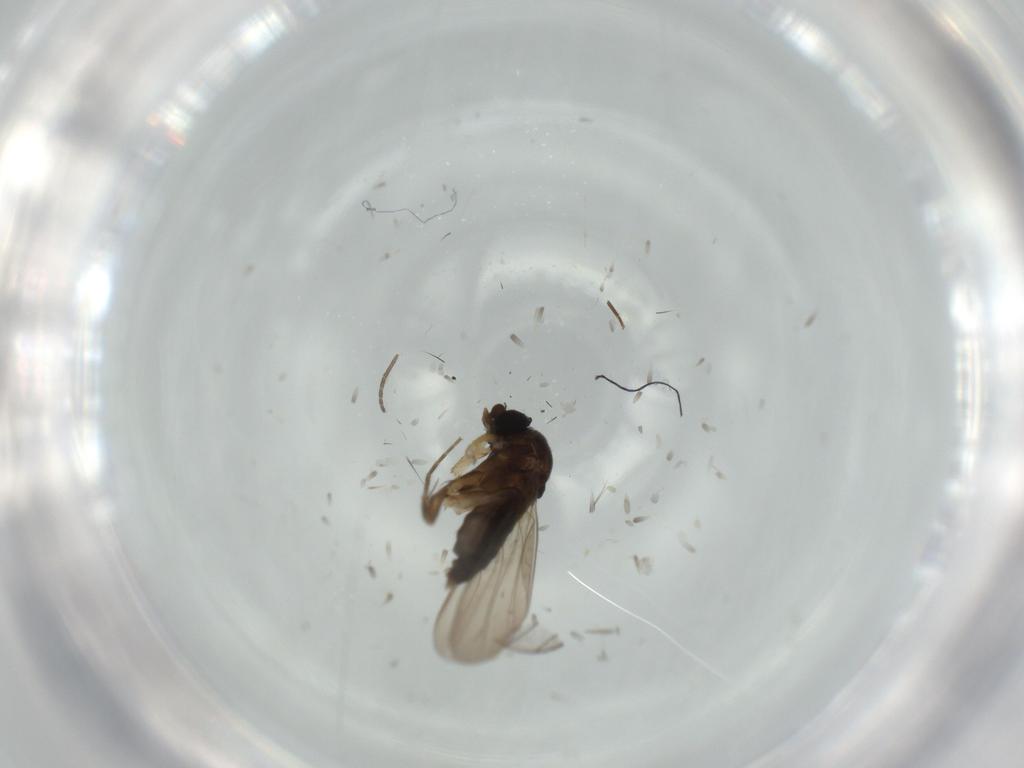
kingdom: Animalia
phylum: Arthropoda
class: Insecta
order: Diptera
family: Phoridae
